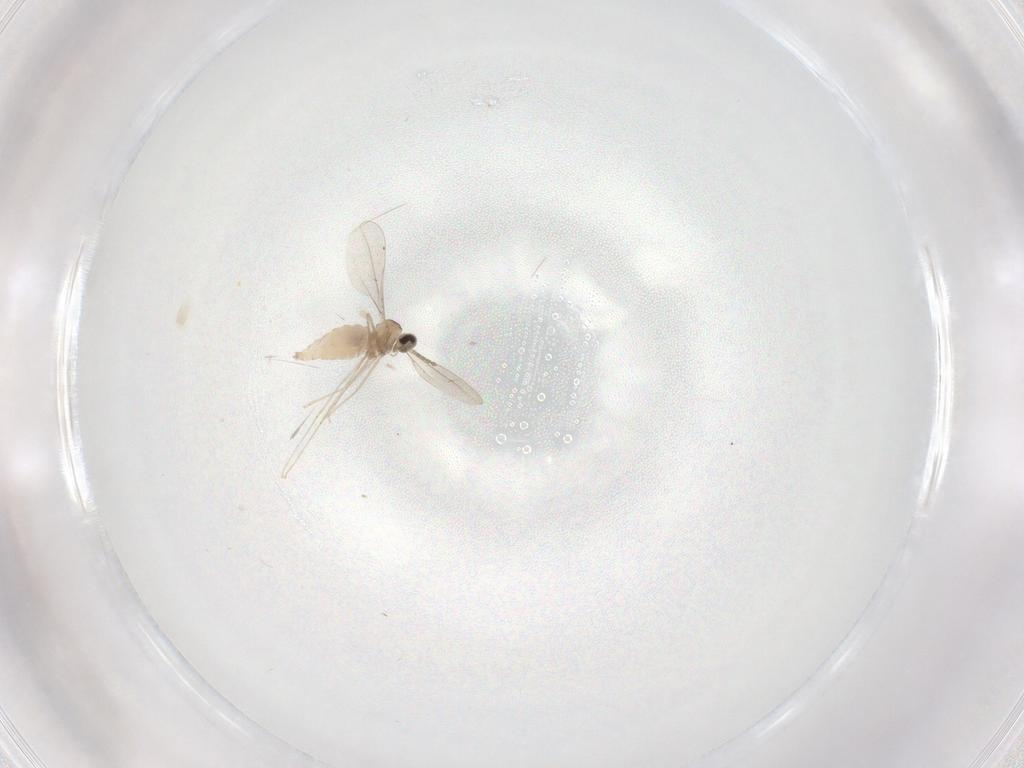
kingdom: Animalia
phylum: Arthropoda
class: Insecta
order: Diptera
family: Cecidomyiidae
